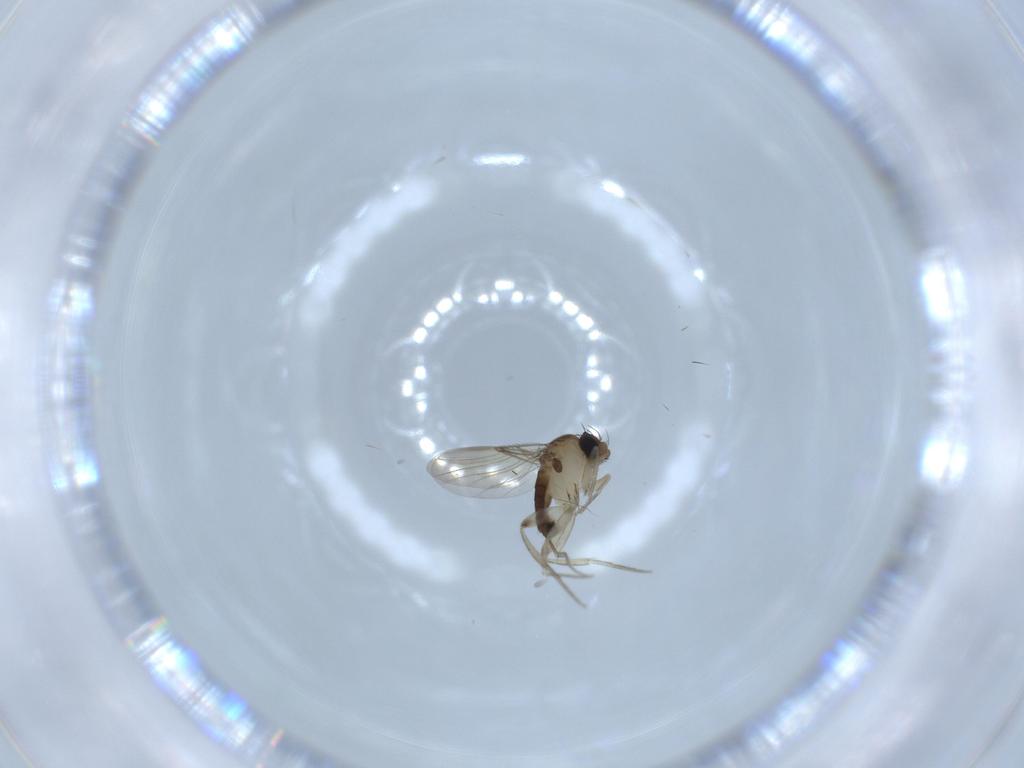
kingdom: Animalia
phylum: Arthropoda
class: Insecta
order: Diptera
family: Phoridae
